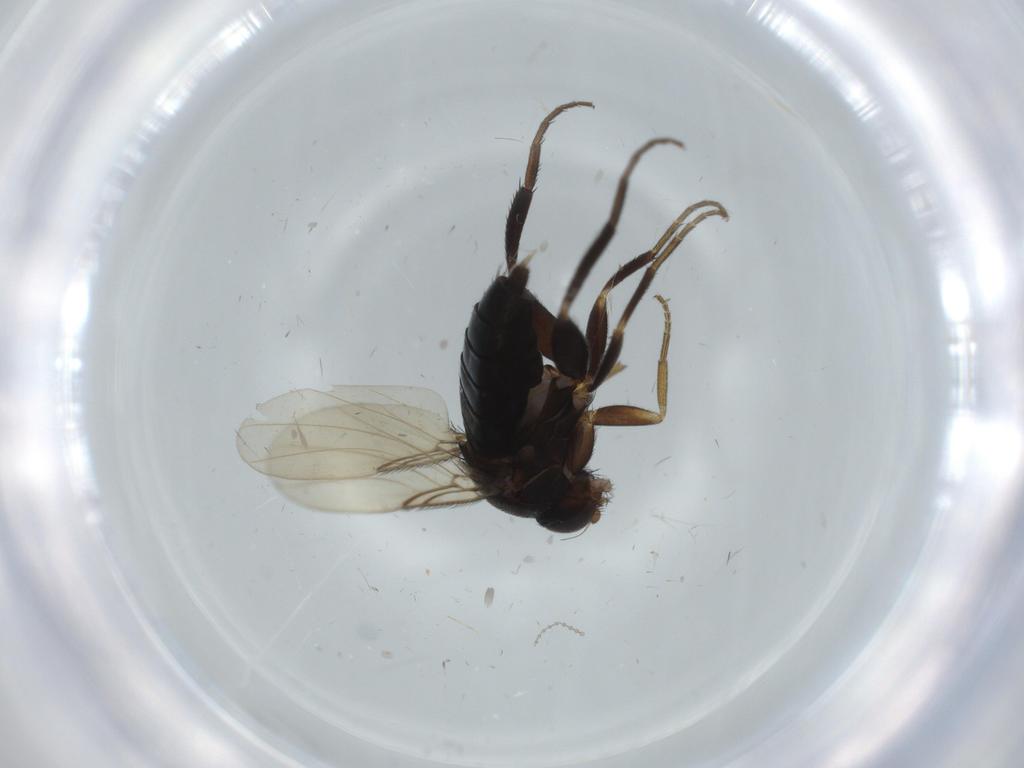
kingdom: Animalia
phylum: Arthropoda
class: Insecta
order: Diptera
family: Phoridae
